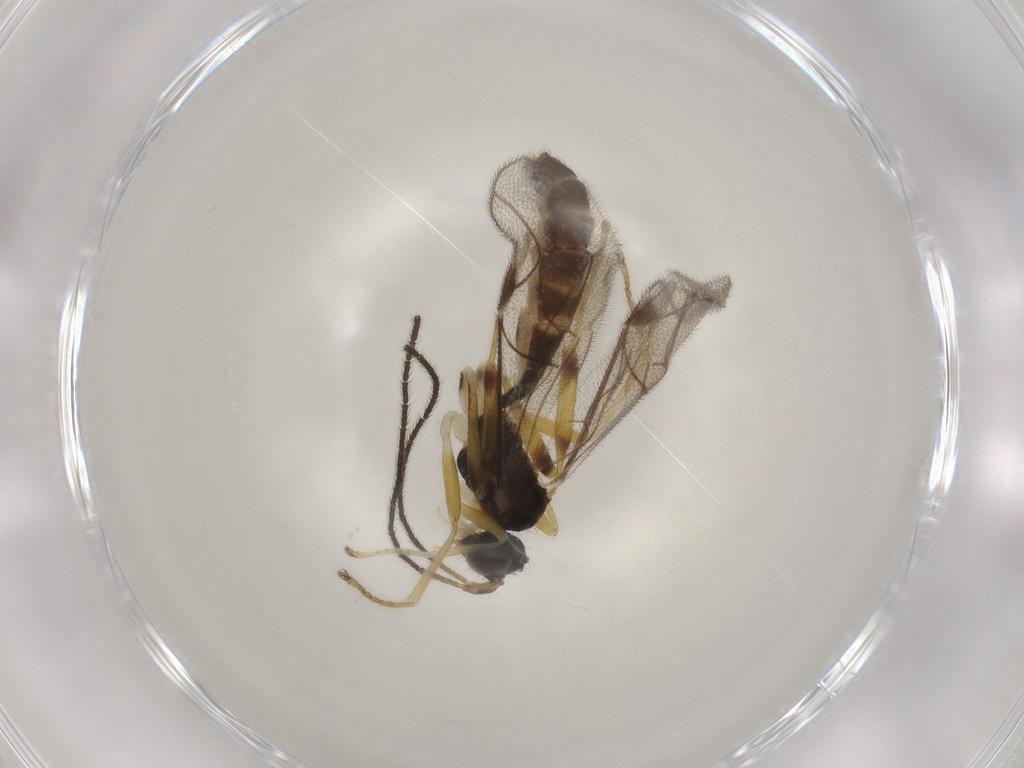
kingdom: Animalia
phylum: Arthropoda
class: Insecta
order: Hymenoptera
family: Ichneumonidae
